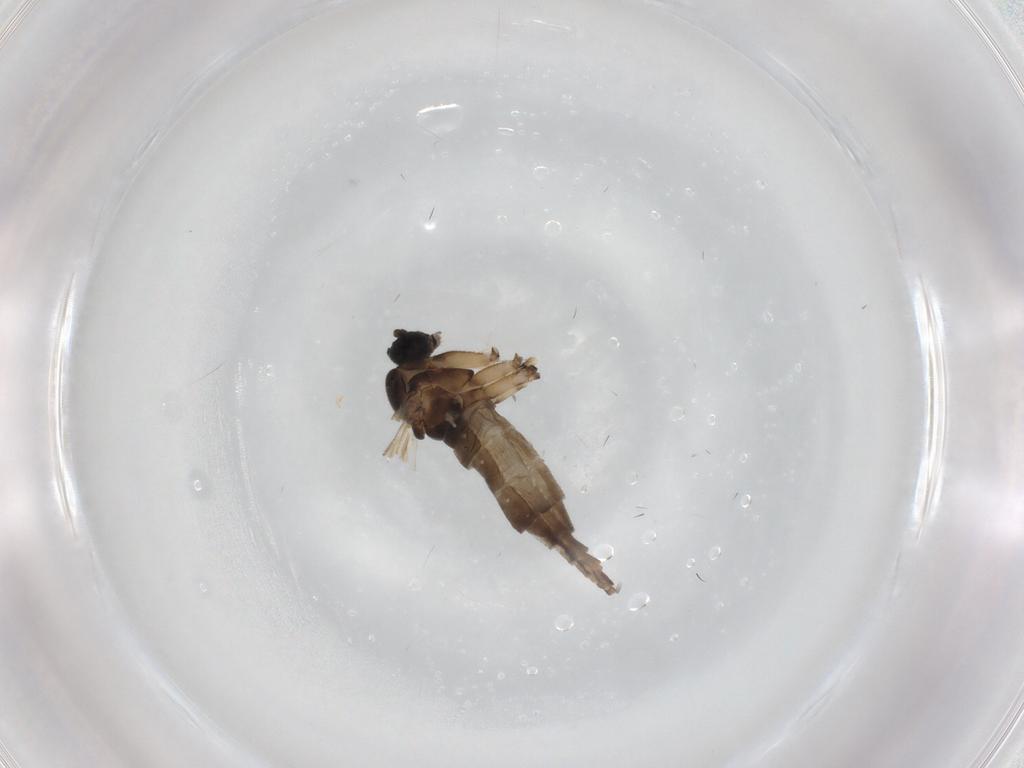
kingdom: Animalia
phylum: Arthropoda
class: Insecta
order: Diptera
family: Sciaridae
